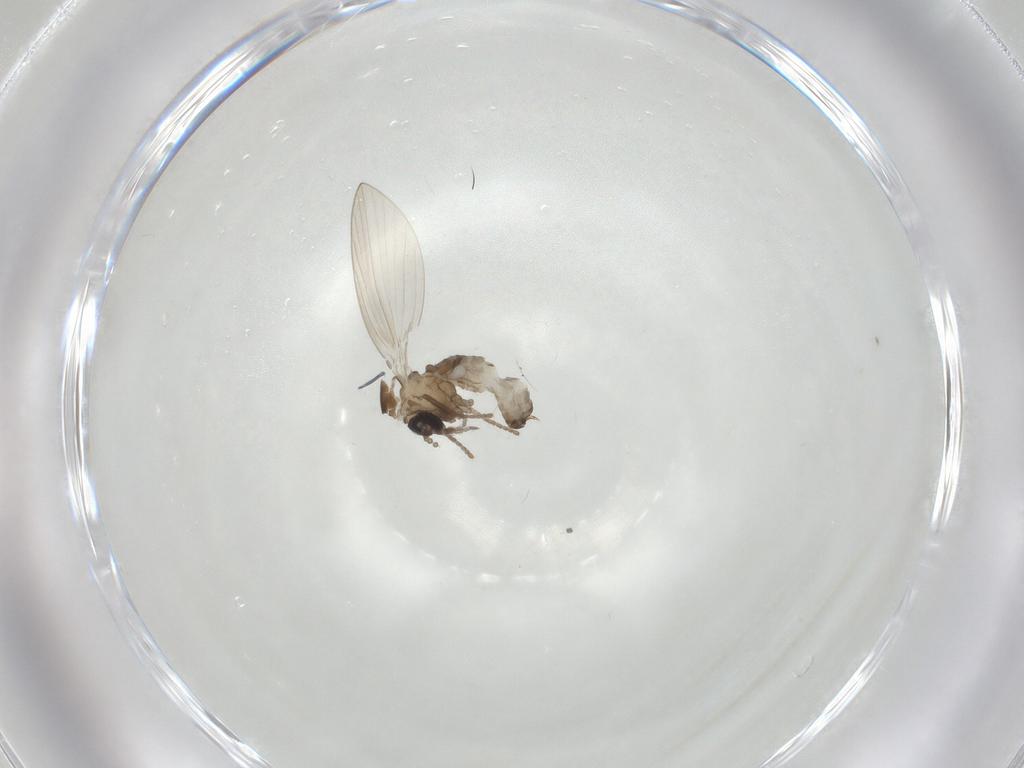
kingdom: Animalia
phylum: Arthropoda
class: Insecta
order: Diptera
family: Psychodidae
